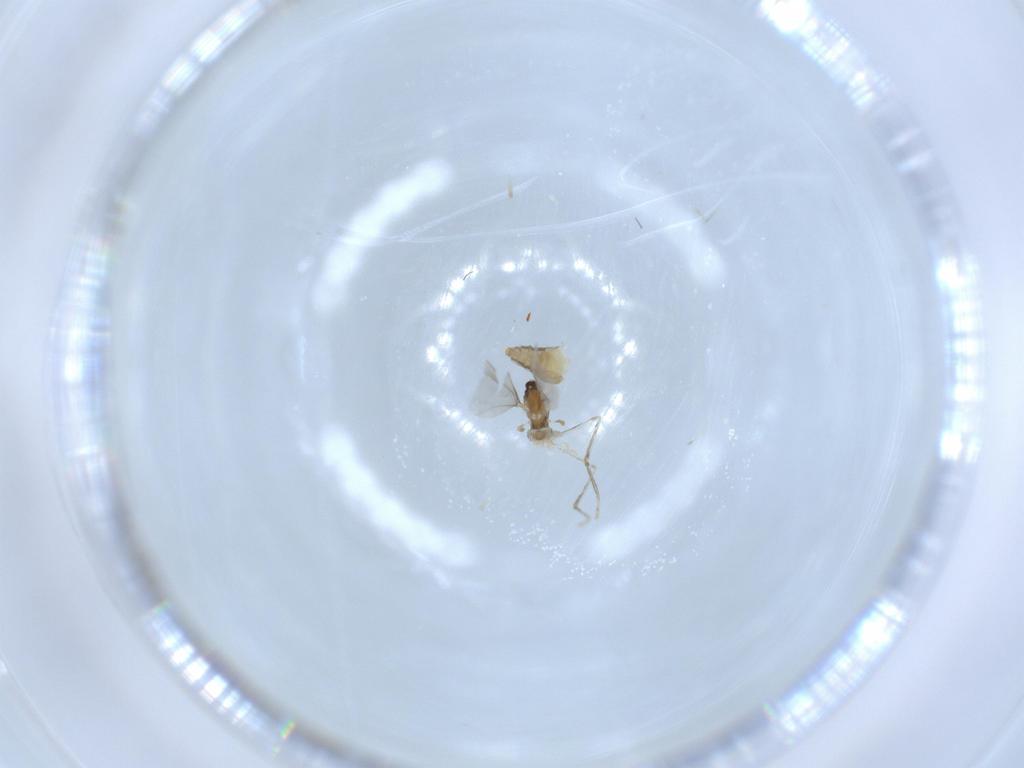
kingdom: Animalia
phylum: Arthropoda
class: Insecta
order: Diptera
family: Cecidomyiidae
